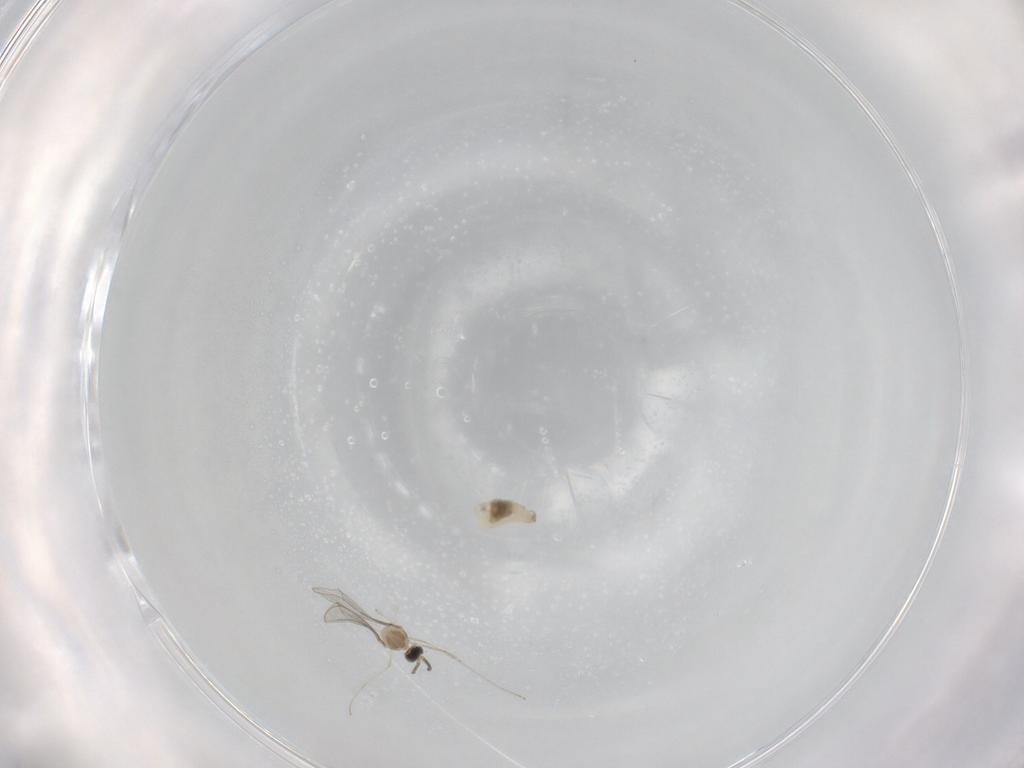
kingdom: Animalia
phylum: Arthropoda
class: Insecta
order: Diptera
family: Cecidomyiidae
